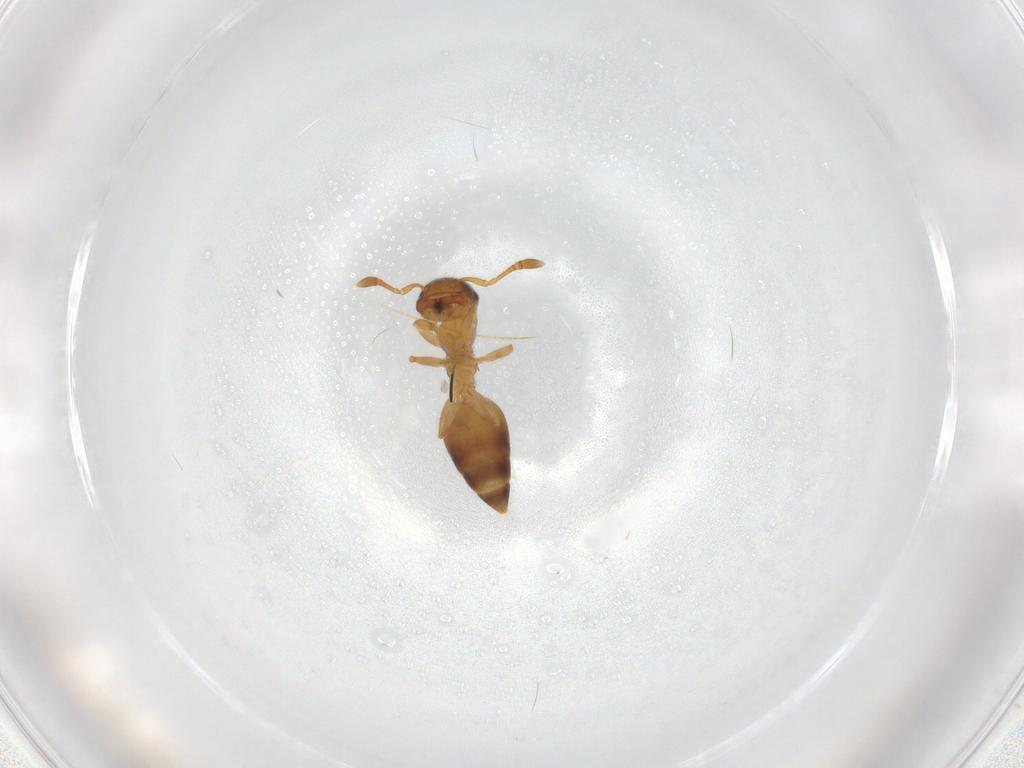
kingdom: Animalia
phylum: Arthropoda
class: Insecta
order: Hymenoptera
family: Formicidae
